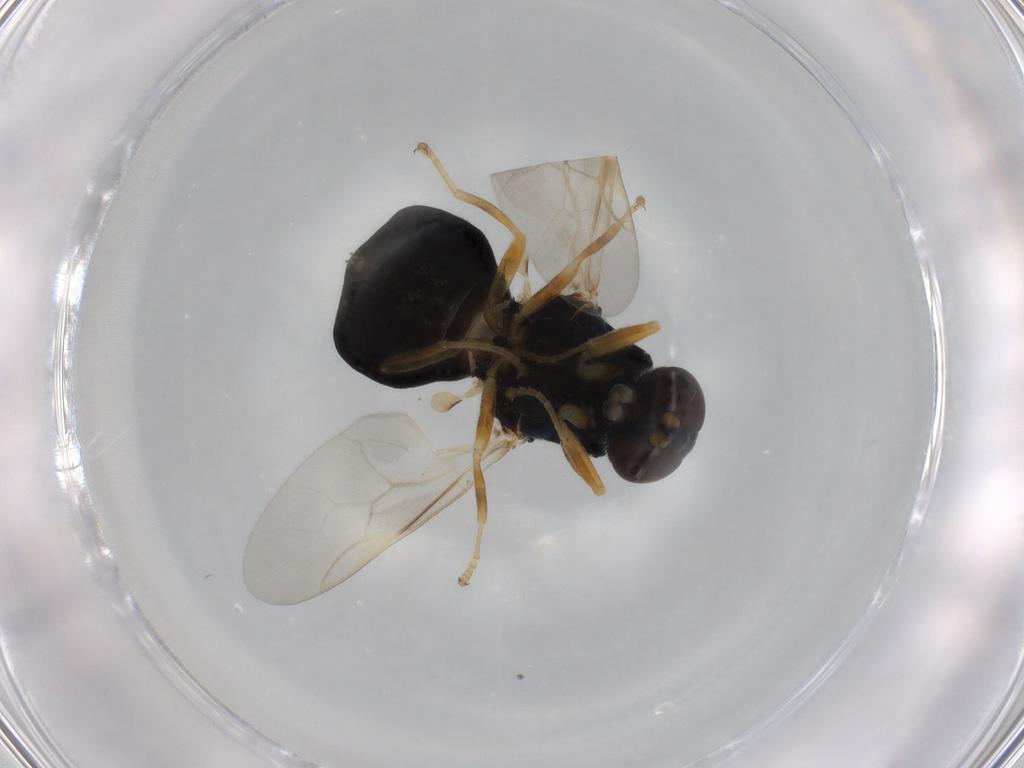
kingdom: Animalia
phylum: Arthropoda
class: Insecta
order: Diptera
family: Stratiomyidae
